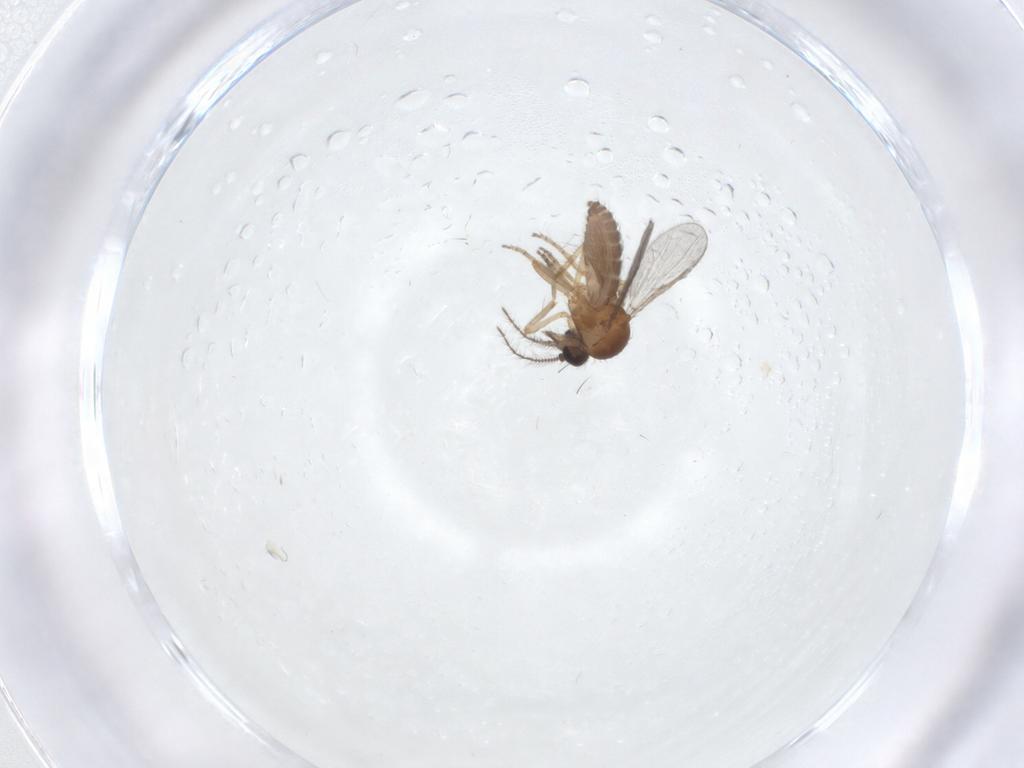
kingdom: Animalia
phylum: Arthropoda
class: Insecta
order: Diptera
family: Ceratopogonidae
